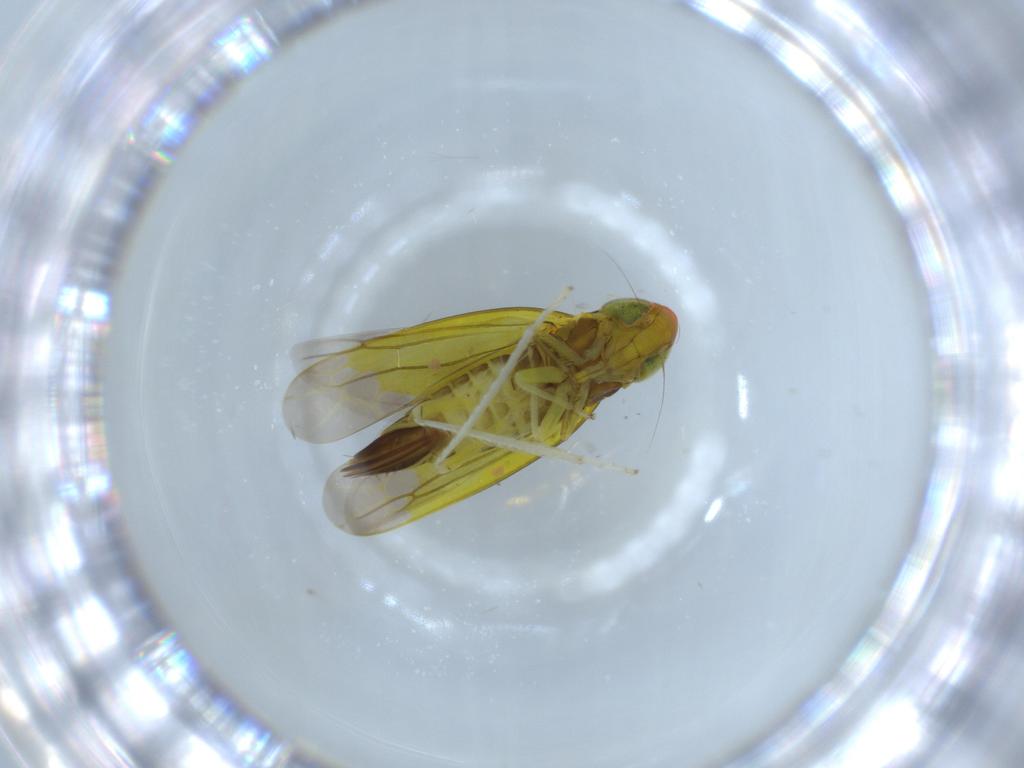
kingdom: Animalia
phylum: Arthropoda
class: Insecta
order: Hemiptera
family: Cicadellidae
